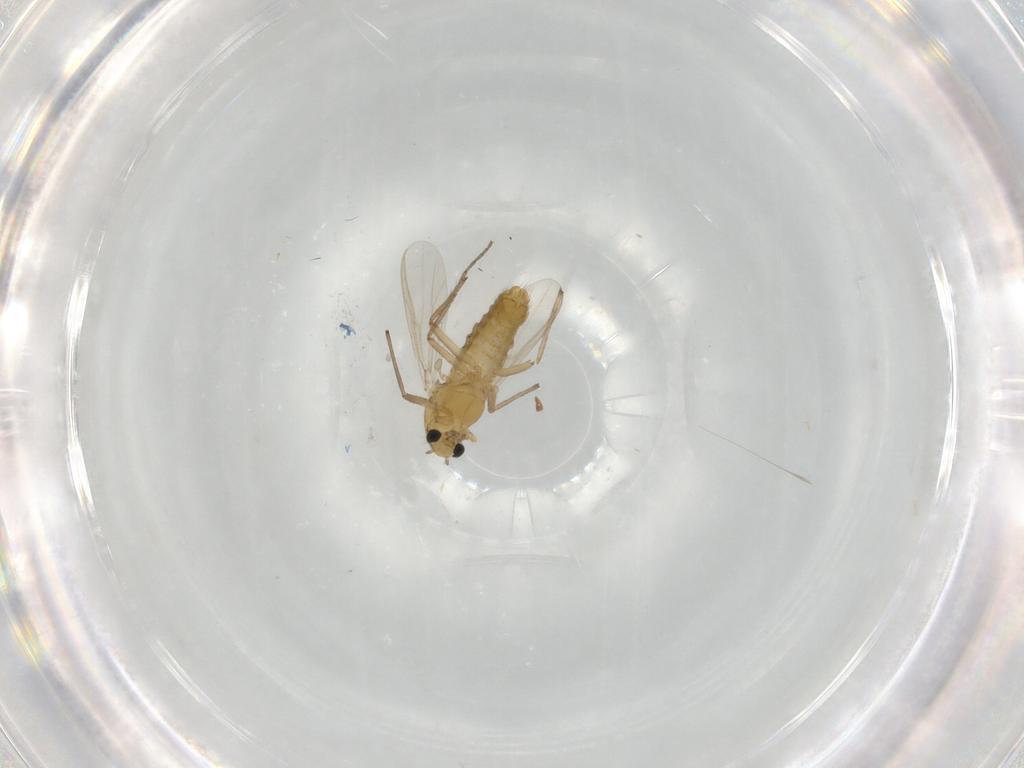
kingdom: Animalia
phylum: Arthropoda
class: Insecta
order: Diptera
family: Chironomidae
